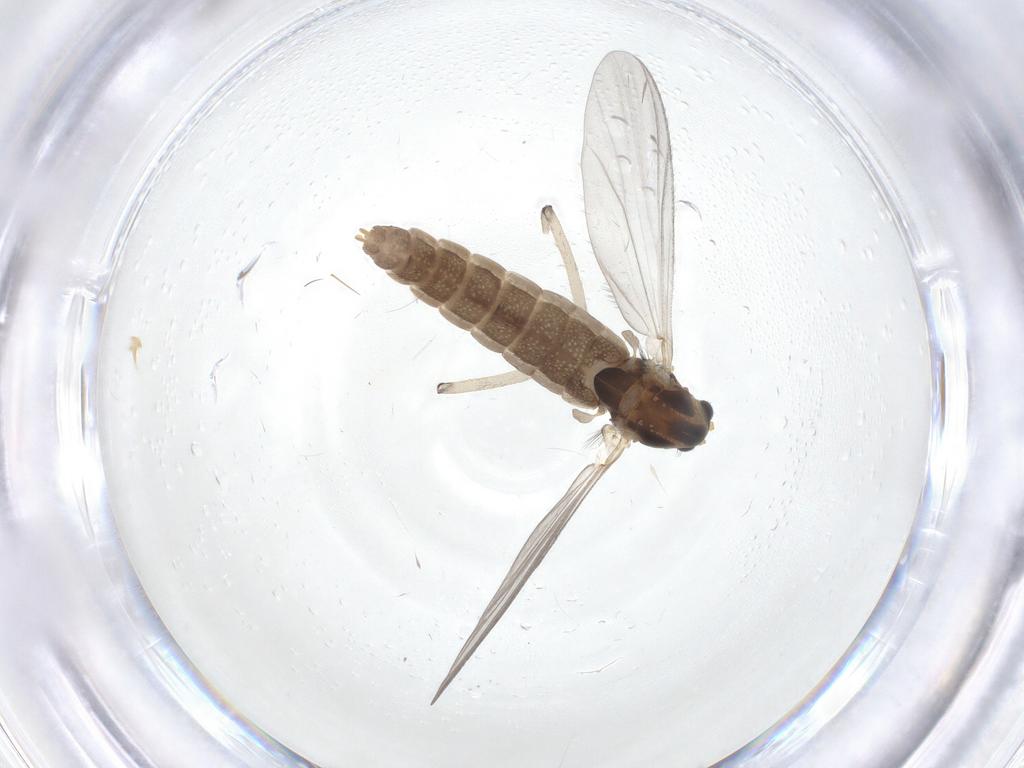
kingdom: Animalia
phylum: Arthropoda
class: Insecta
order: Diptera
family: Chironomidae
